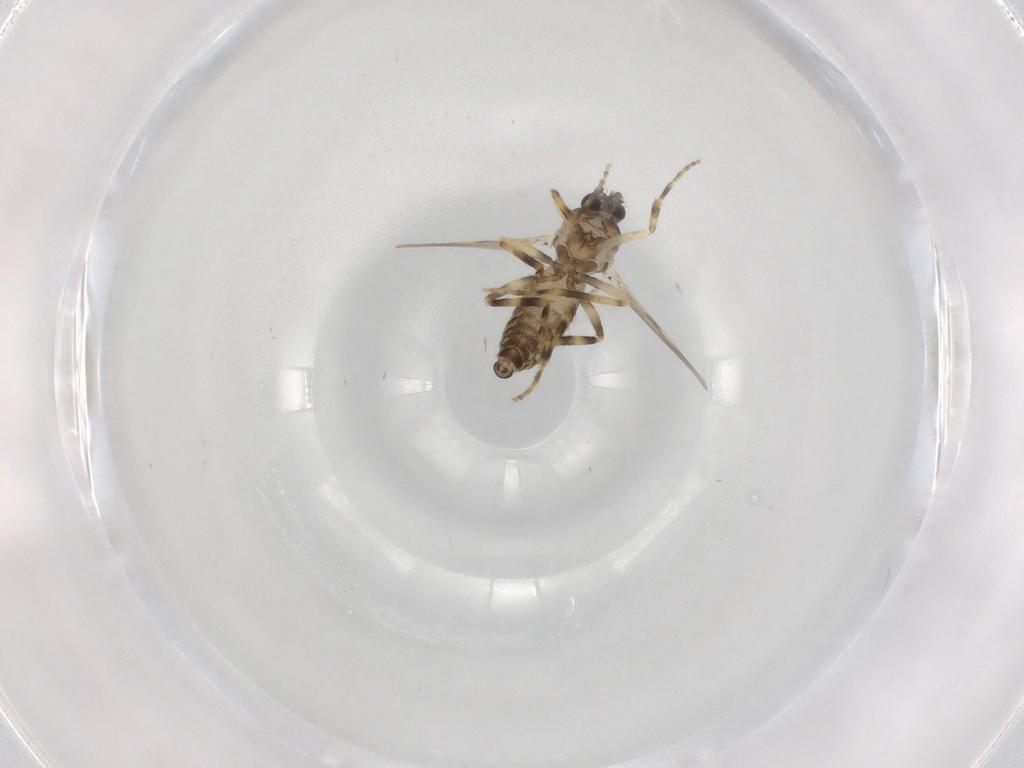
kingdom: Animalia
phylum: Arthropoda
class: Insecta
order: Diptera
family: Ceratopogonidae
